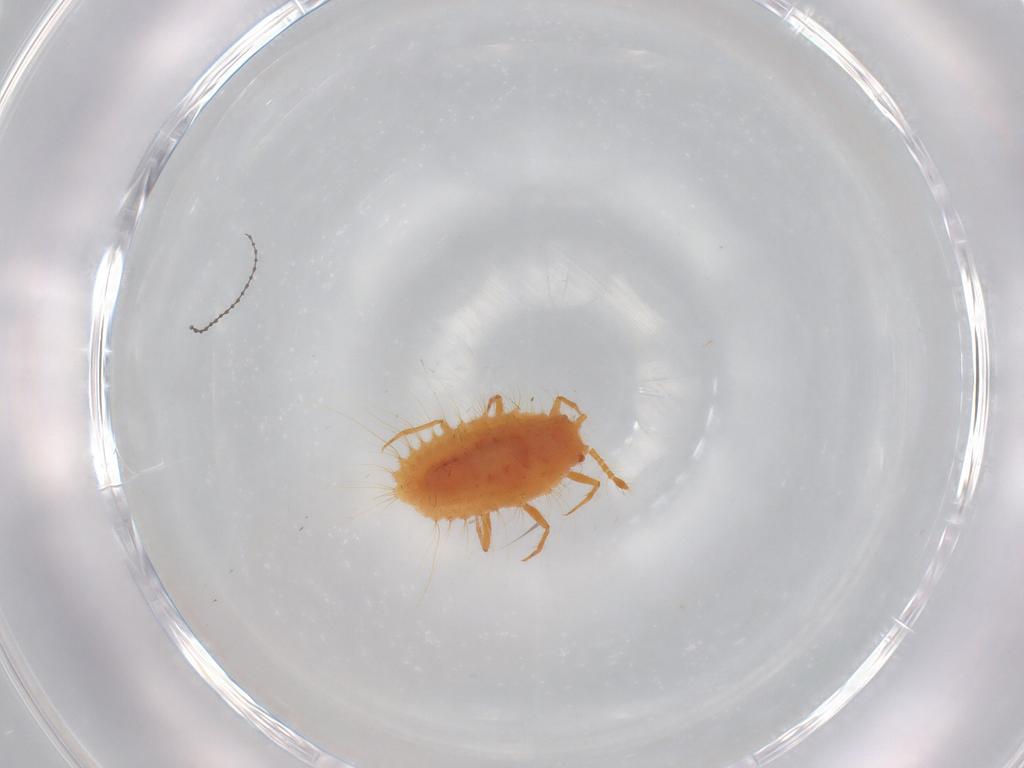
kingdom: Animalia
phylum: Arthropoda
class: Insecta
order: Hemiptera
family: Coccoidea_incertae_sedis
